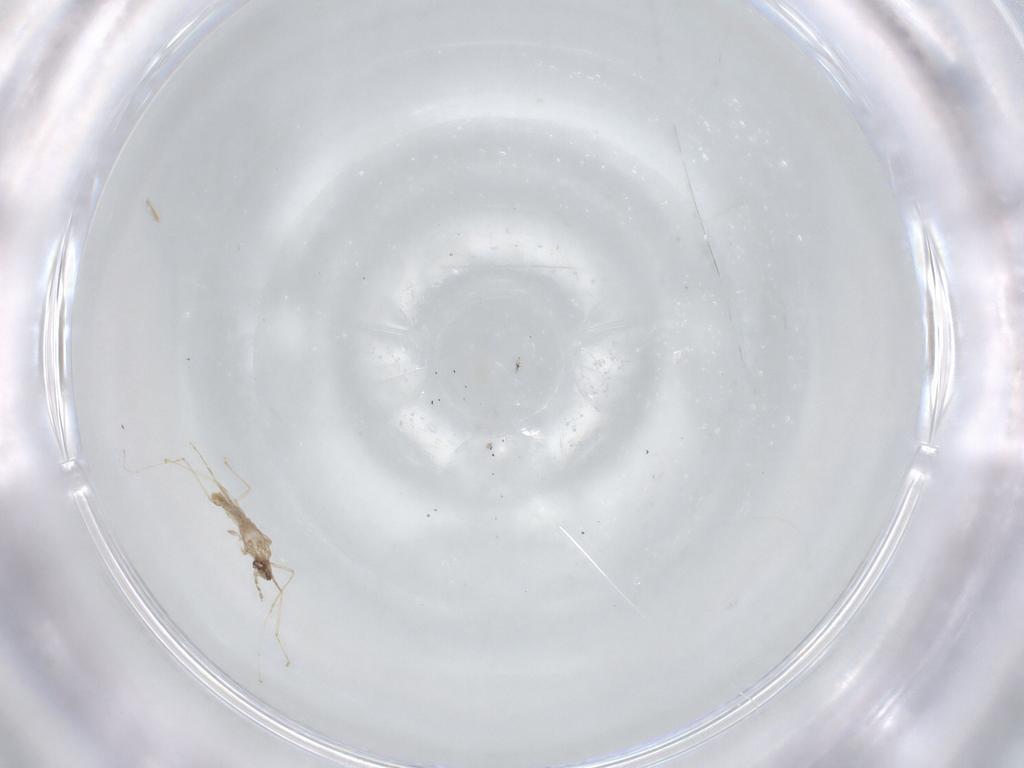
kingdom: Animalia
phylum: Arthropoda
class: Insecta
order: Diptera
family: Cecidomyiidae
